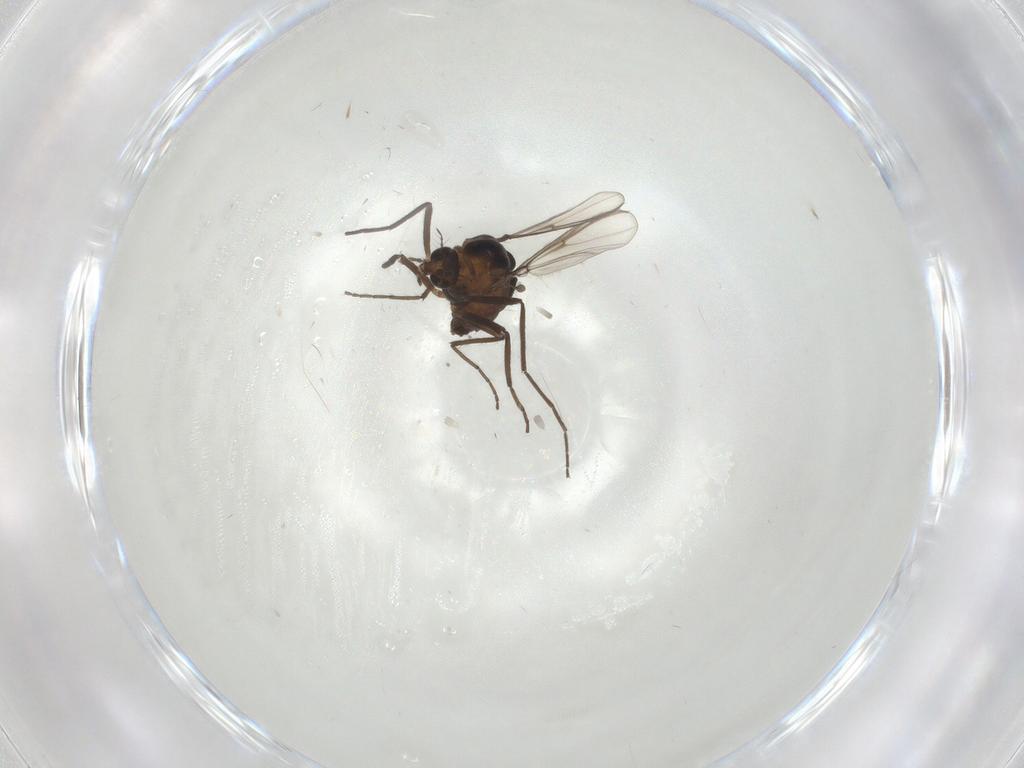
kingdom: Animalia
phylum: Arthropoda
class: Insecta
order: Diptera
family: Chironomidae
